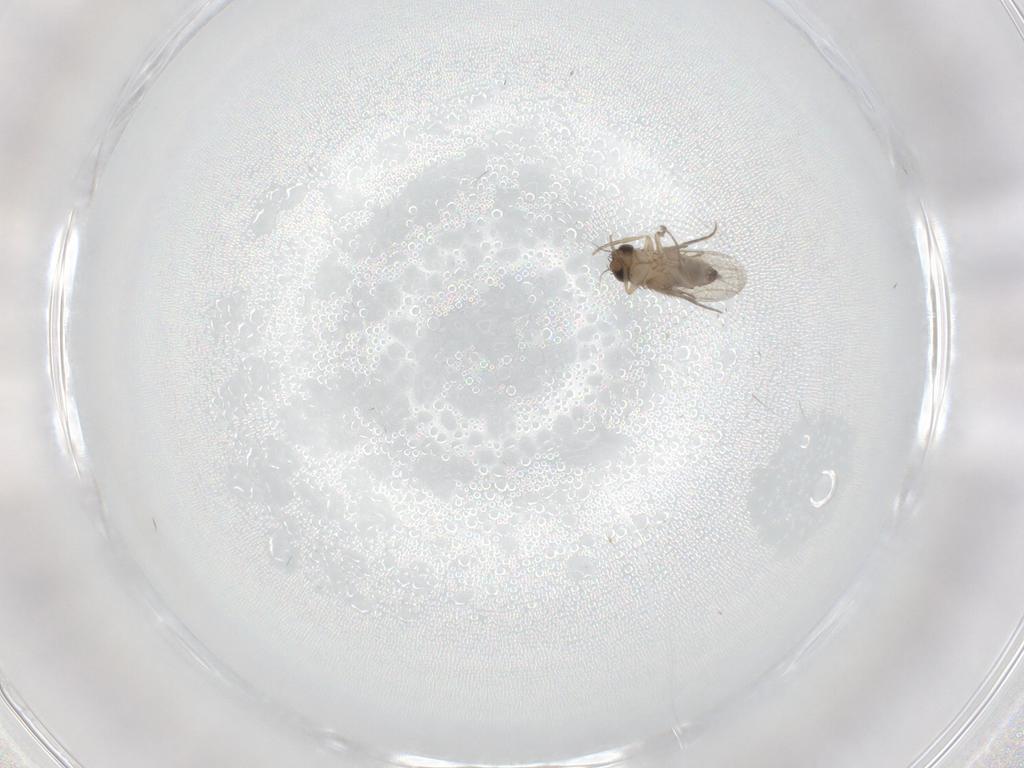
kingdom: Animalia
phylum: Arthropoda
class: Insecta
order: Diptera
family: Phoridae
